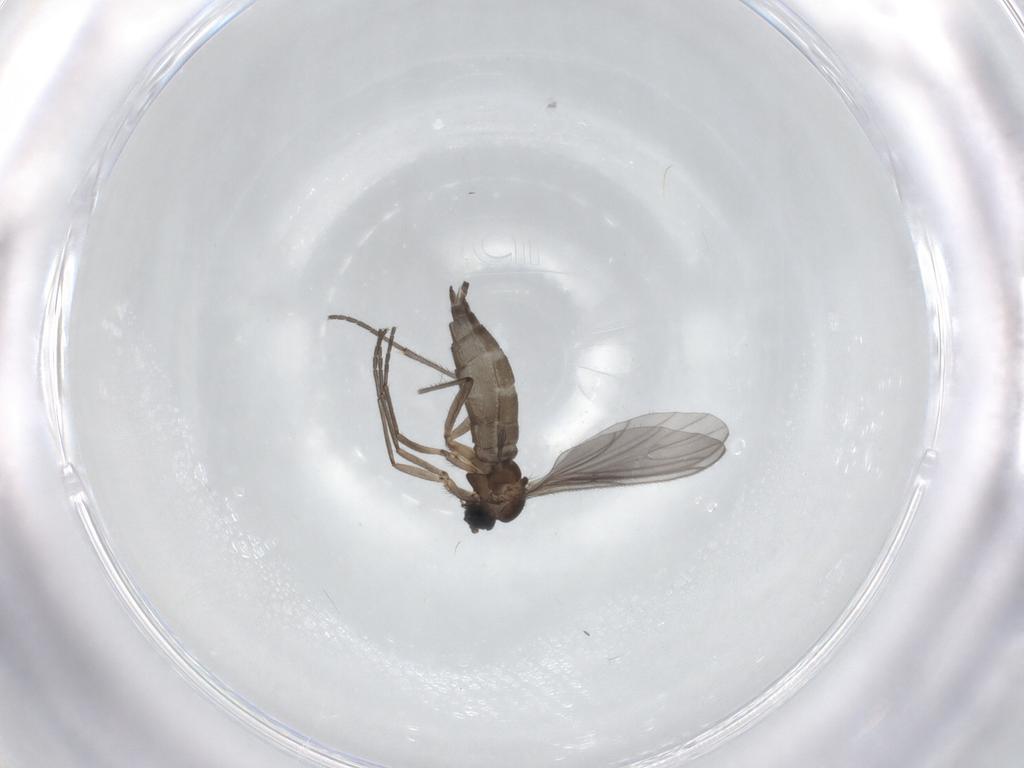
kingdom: Animalia
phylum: Arthropoda
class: Insecta
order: Diptera
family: Sciaridae
